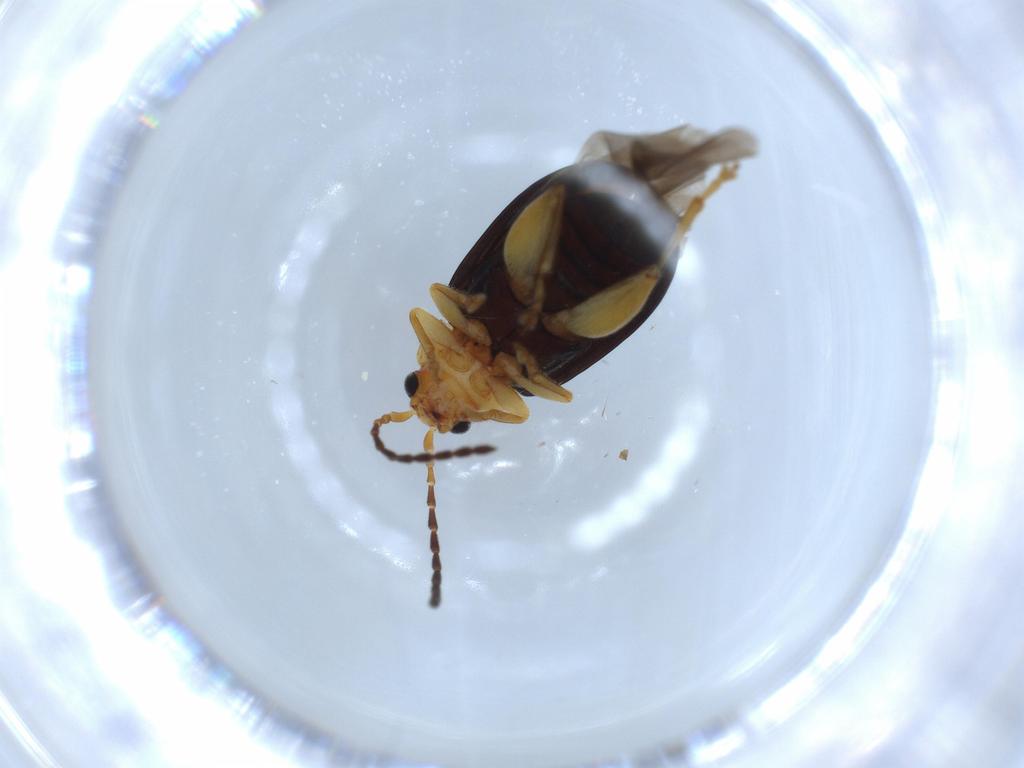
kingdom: Animalia
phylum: Arthropoda
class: Insecta
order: Coleoptera
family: Chrysomelidae
